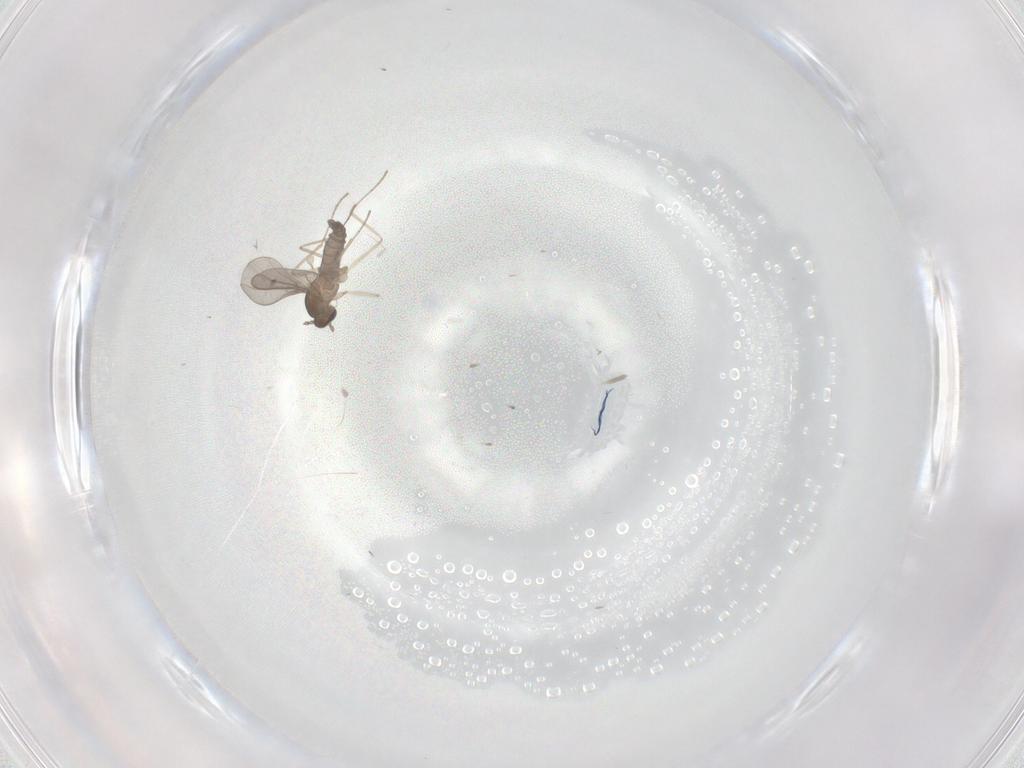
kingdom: Animalia
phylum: Arthropoda
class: Insecta
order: Diptera
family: Cecidomyiidae
